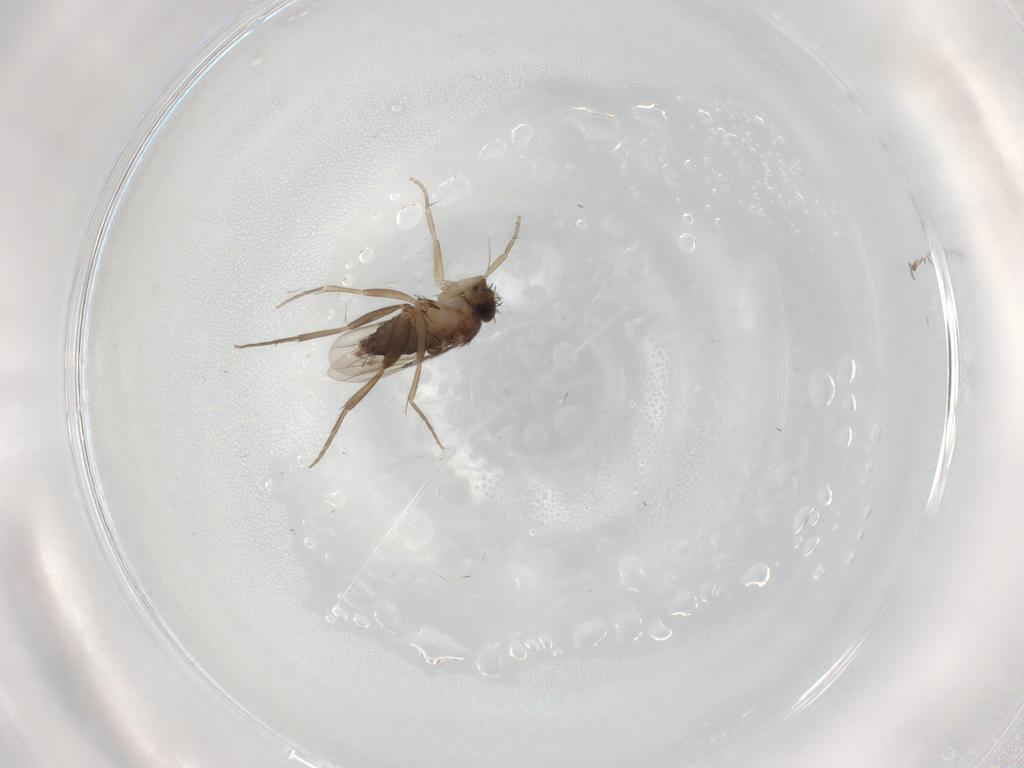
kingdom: Animalia
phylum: Arthropoda
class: Insecta
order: Diptera
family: Phoridae
